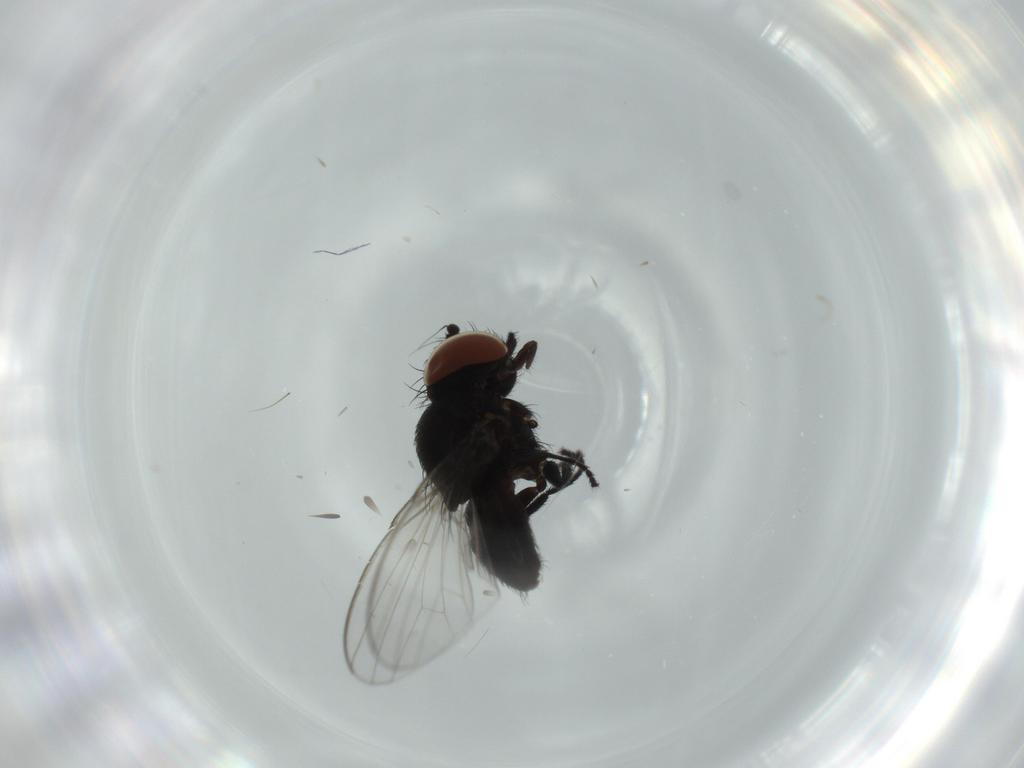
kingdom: Animalia
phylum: Arthropoda
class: Insecta
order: Diptera
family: Milichiidae
